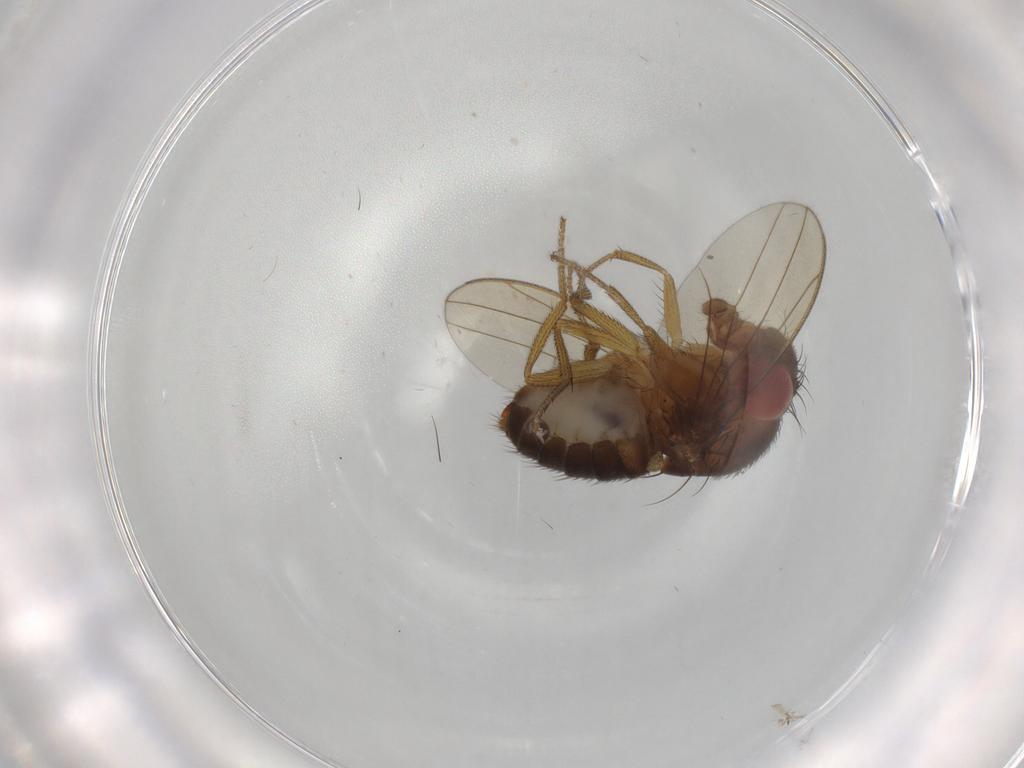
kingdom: Animalia
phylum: Arthropoda
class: Insecta
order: Diptera
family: Drosophilidae
